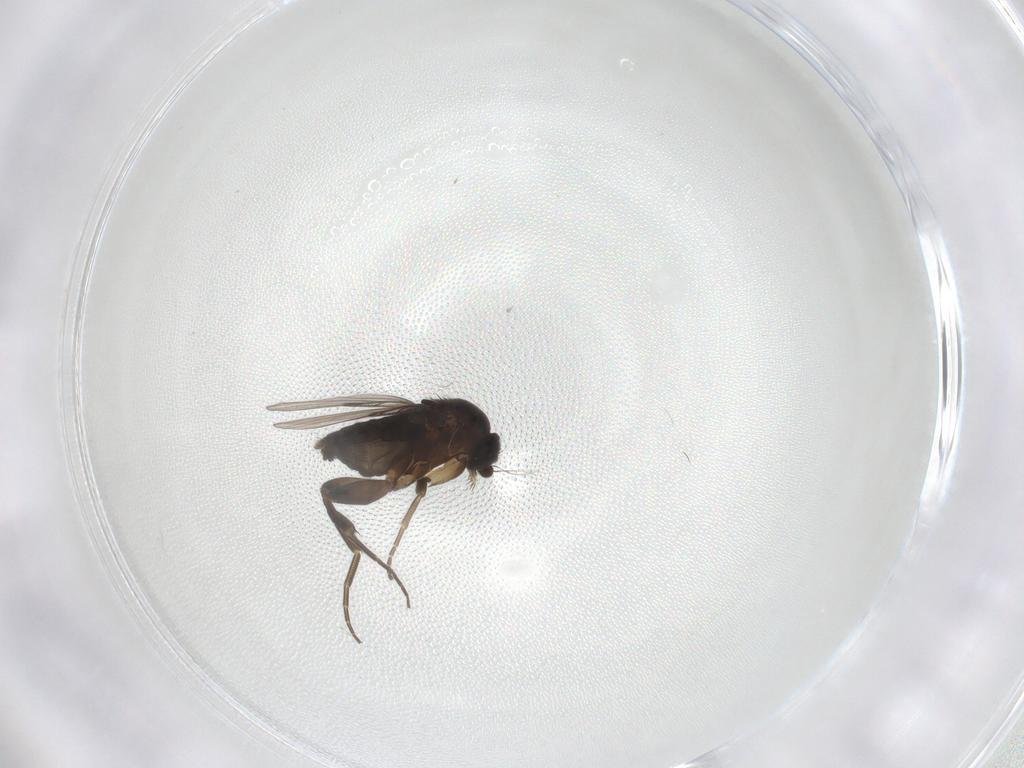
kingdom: Animalia
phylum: Arthropoda
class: Insecta
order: Diptera
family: Phoridae
